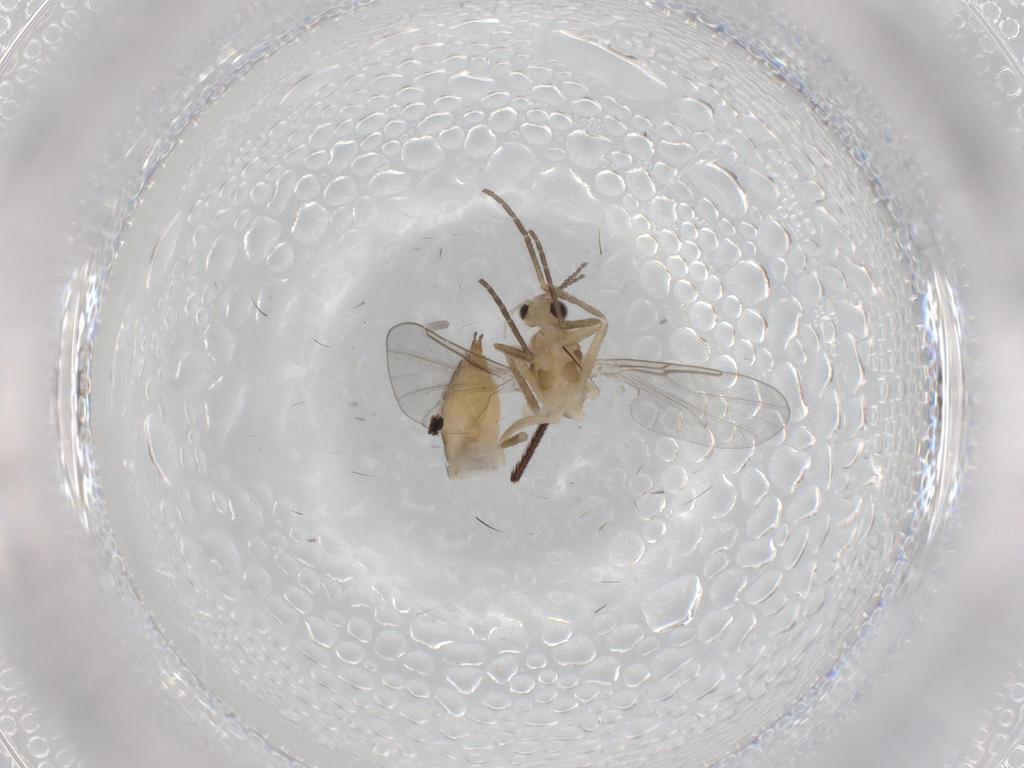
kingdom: Animalia
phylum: Arthropoda
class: Insecta
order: Diptera
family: Cecidomyiidae
